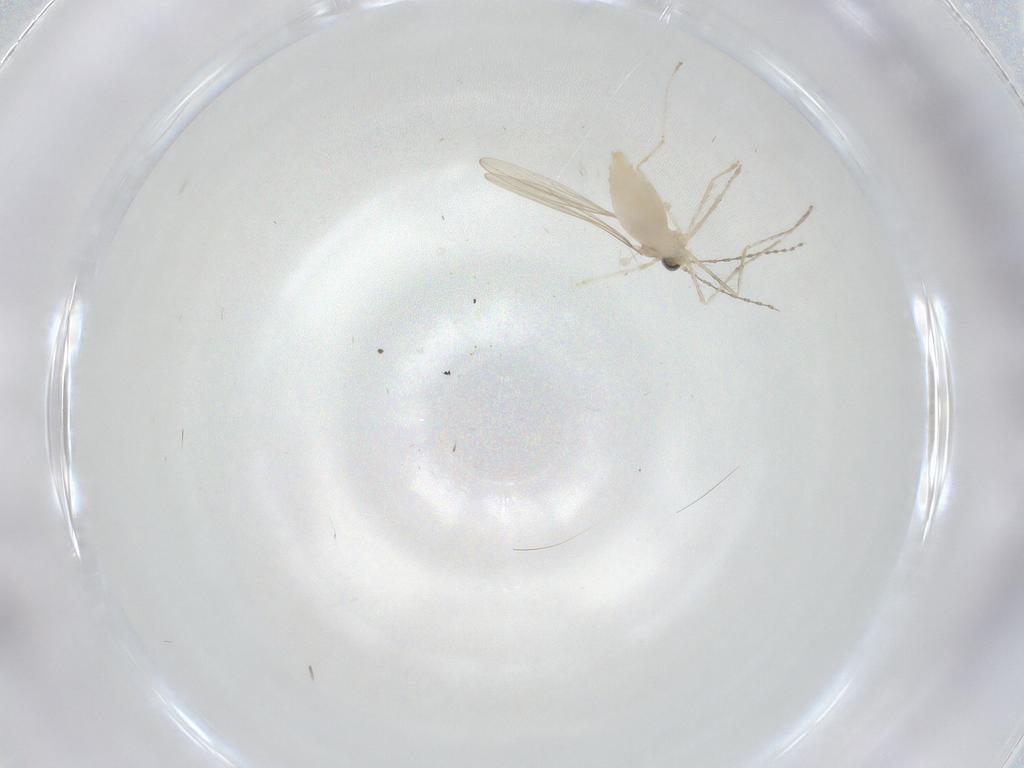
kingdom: Animalia
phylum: Arthropoda
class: Insecta
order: Diptera
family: Cecidomyiidae
